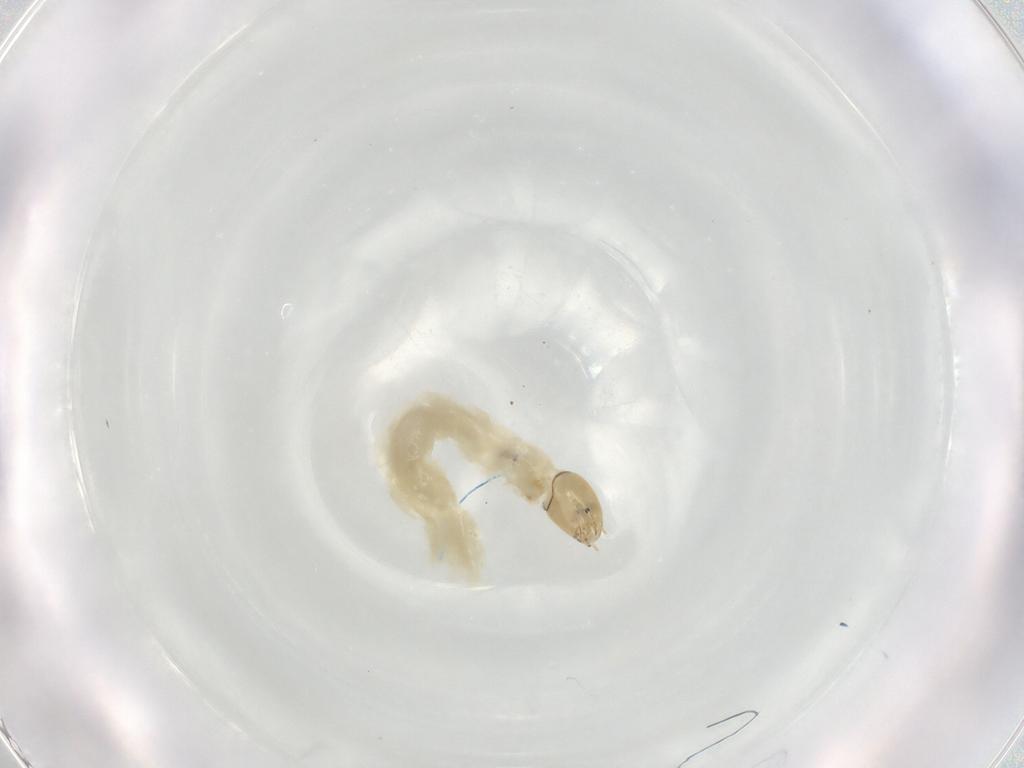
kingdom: Animalia
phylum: Arthropoda
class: Insecta
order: Diptera
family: Chironomidae
